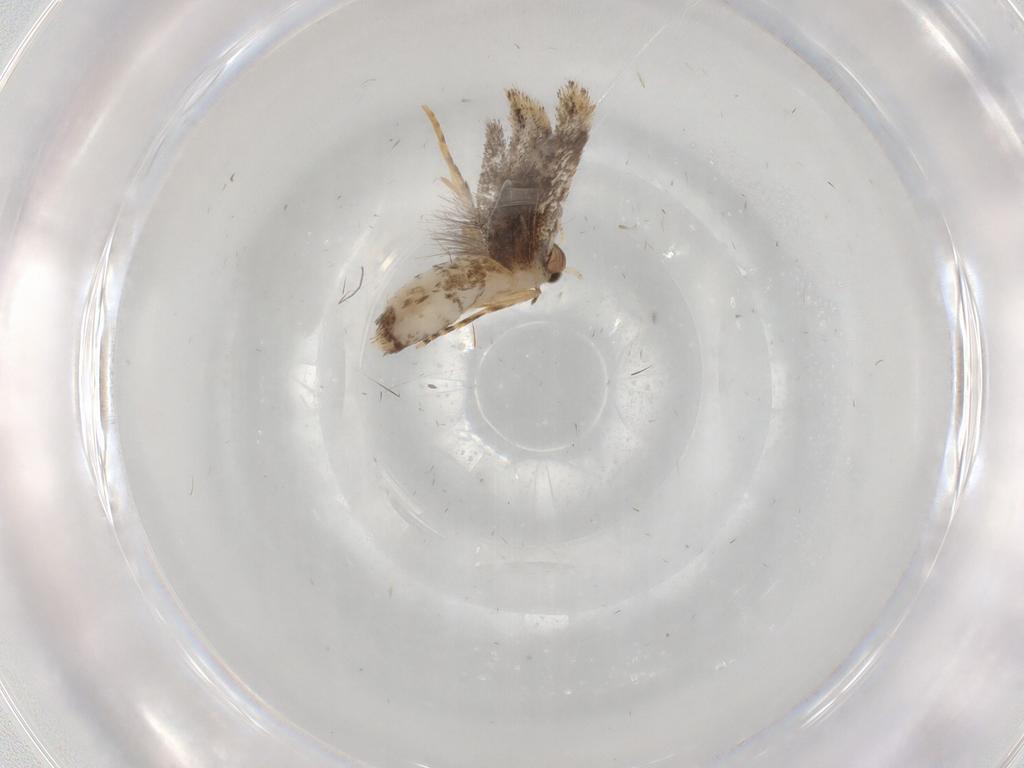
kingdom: Animalia
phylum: Arthropoda
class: Insecta
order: Lepidoptera
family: Tineidae
